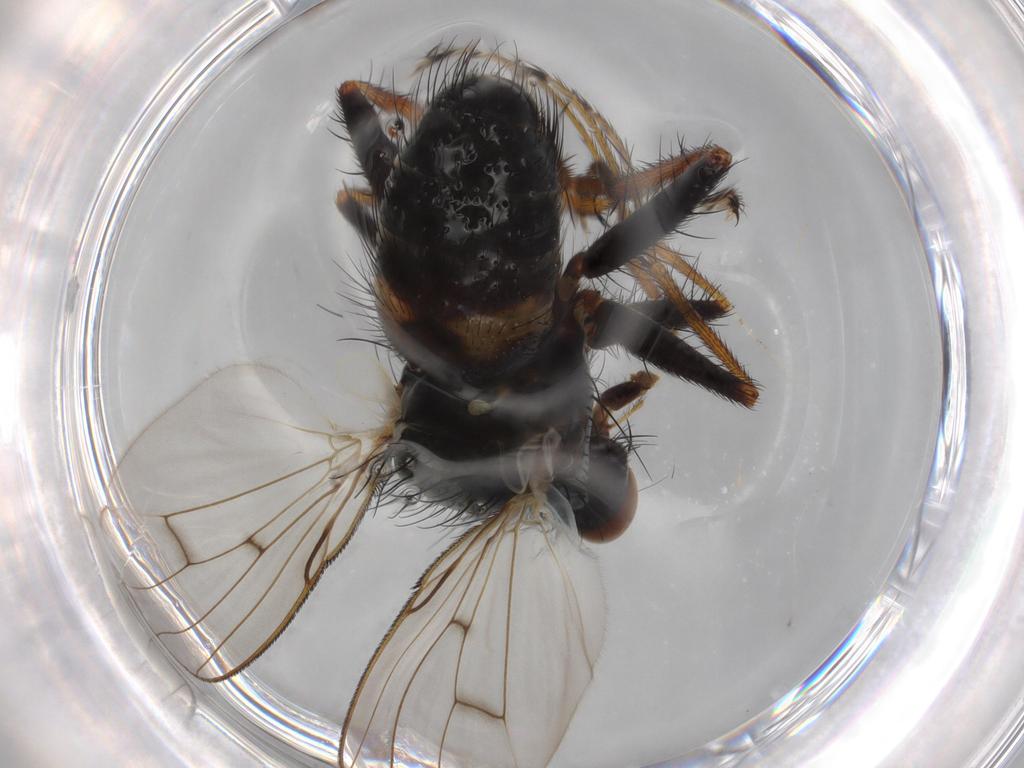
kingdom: Animalia
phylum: Arthropoda
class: Insecta
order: Diptera
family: Muscidae
